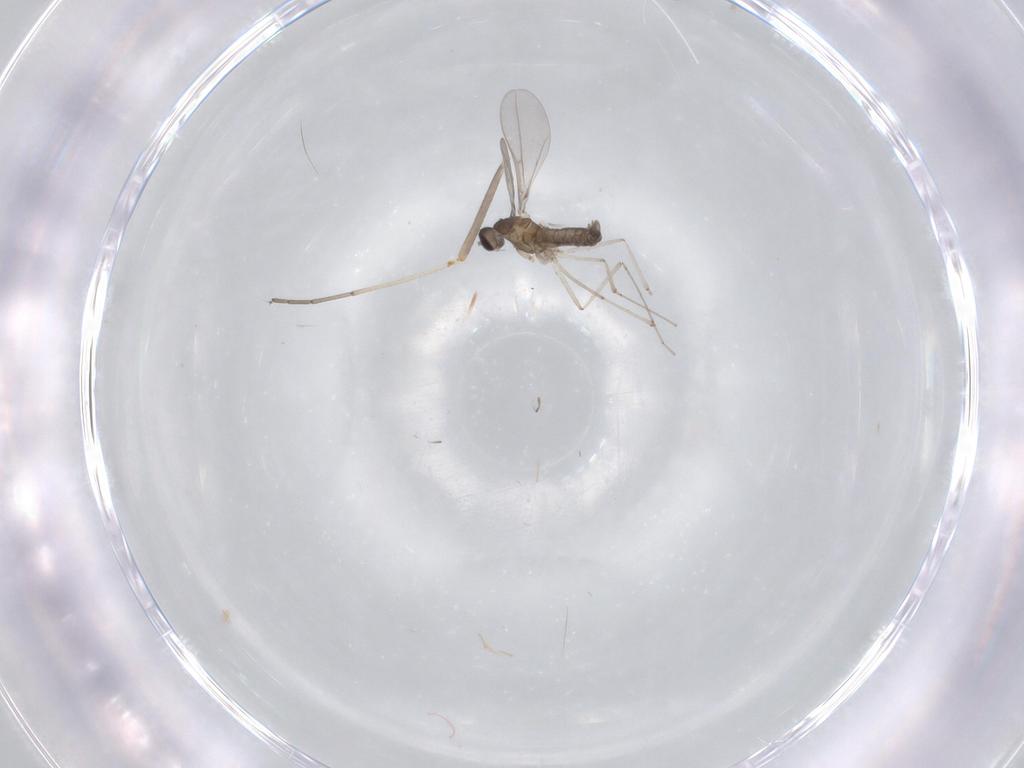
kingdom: Animalia
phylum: Arthropoda
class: Insecta
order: Diptera
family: Cecidomyiidae
